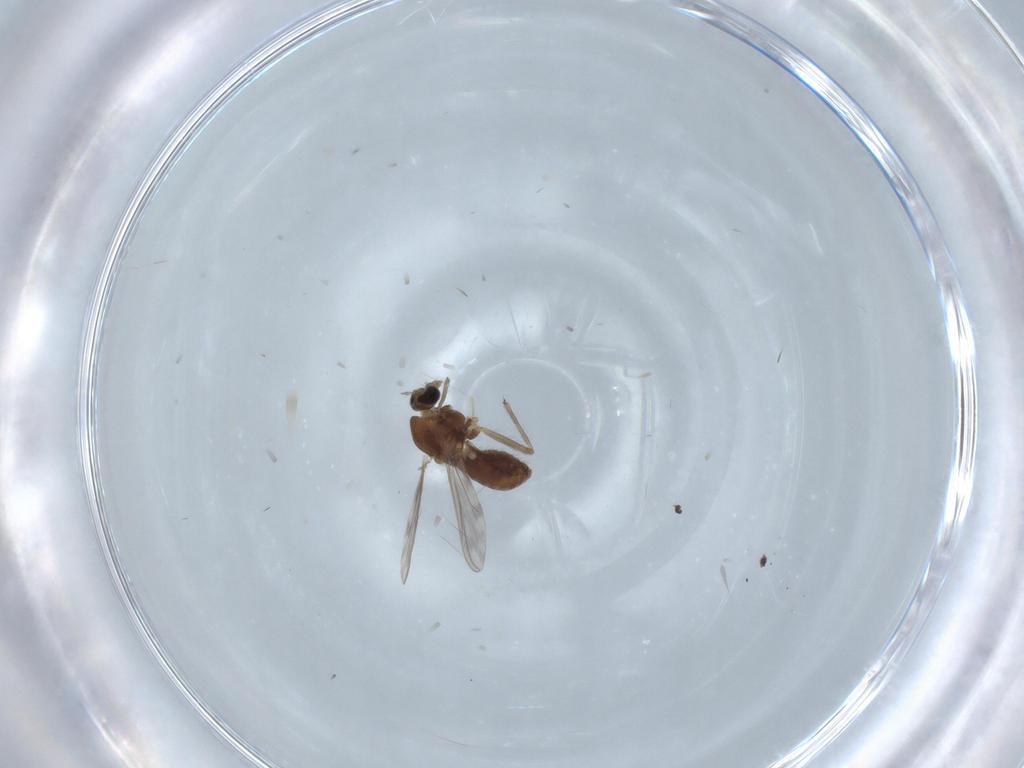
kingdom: Animalia
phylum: Arthropoda
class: Insecta
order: Diptera
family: Chironomidae
